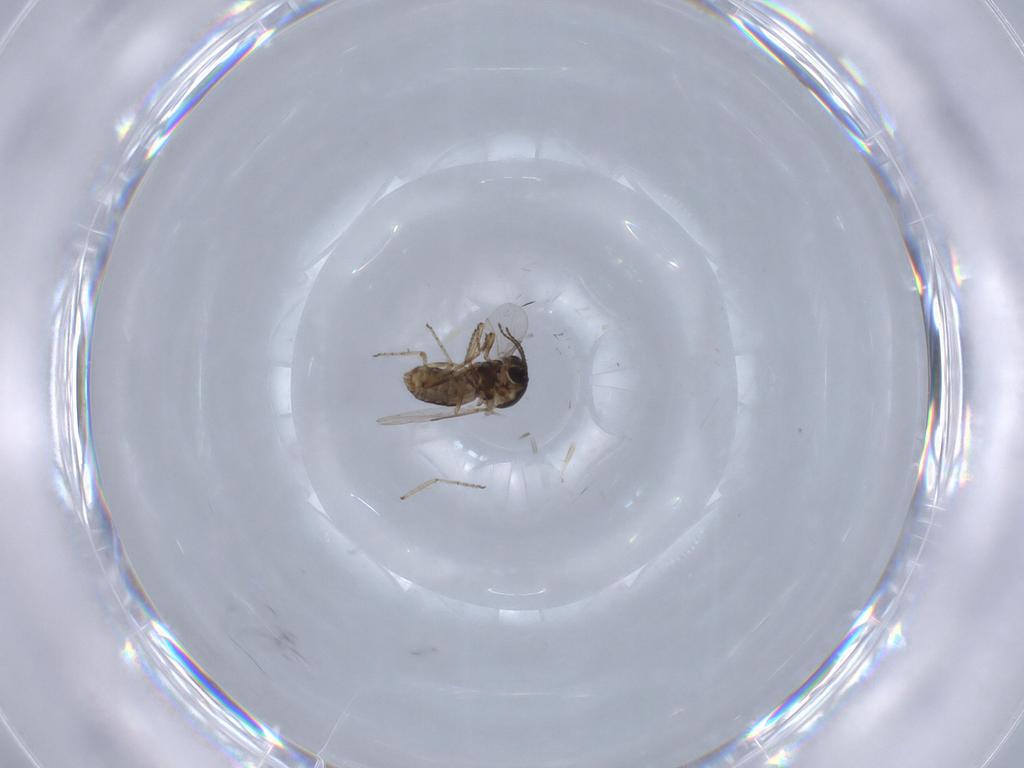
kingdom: Animalia
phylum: Arthropoda
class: Insecta
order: Diptera
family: Ceratopogonidae
